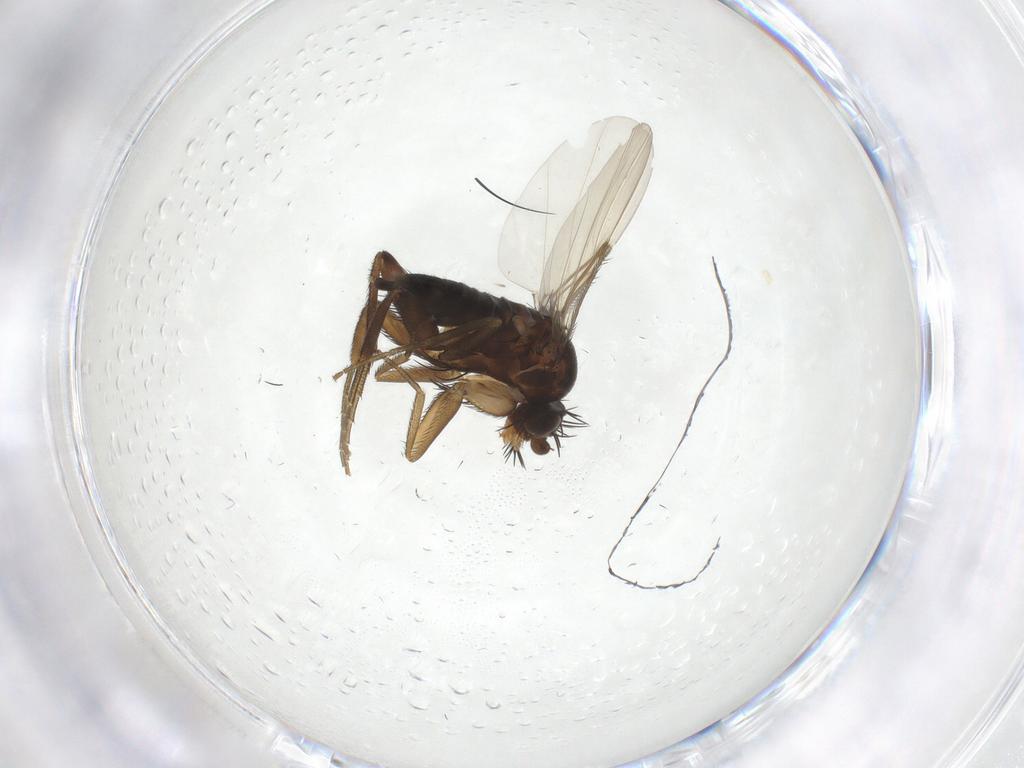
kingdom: Animalia
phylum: Arthropoda
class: Insecta
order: Diptera
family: Phoridae
